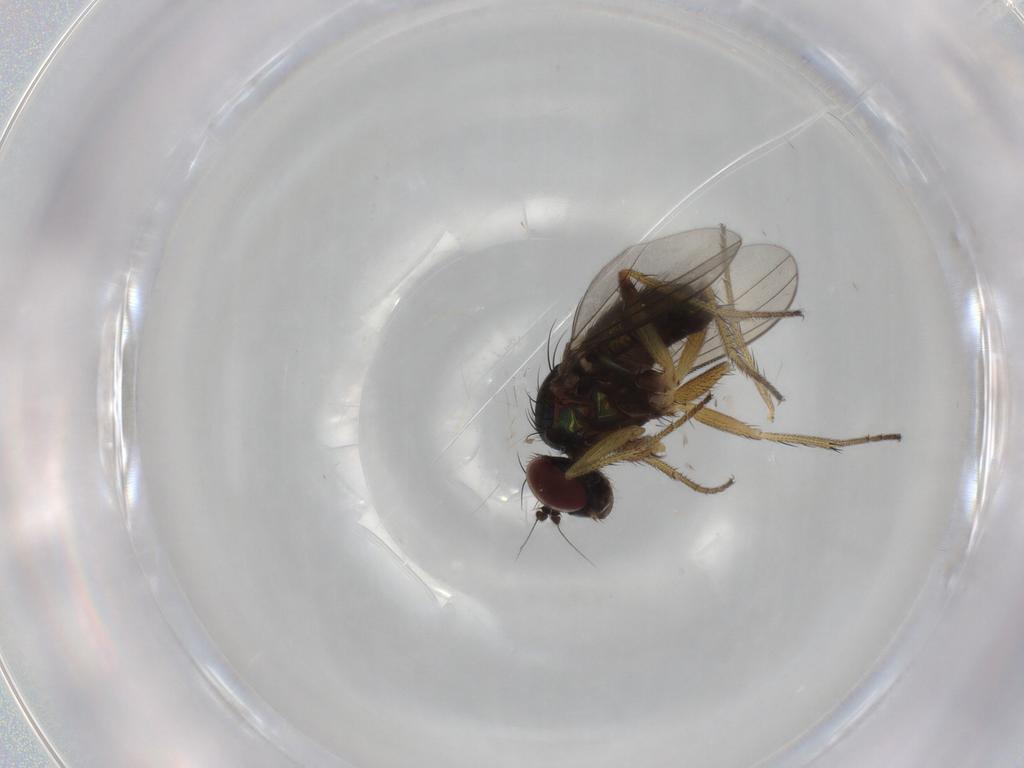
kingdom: Animalia
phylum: Arthropoda
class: Insecta
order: Diptera
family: Dolichopodidae
